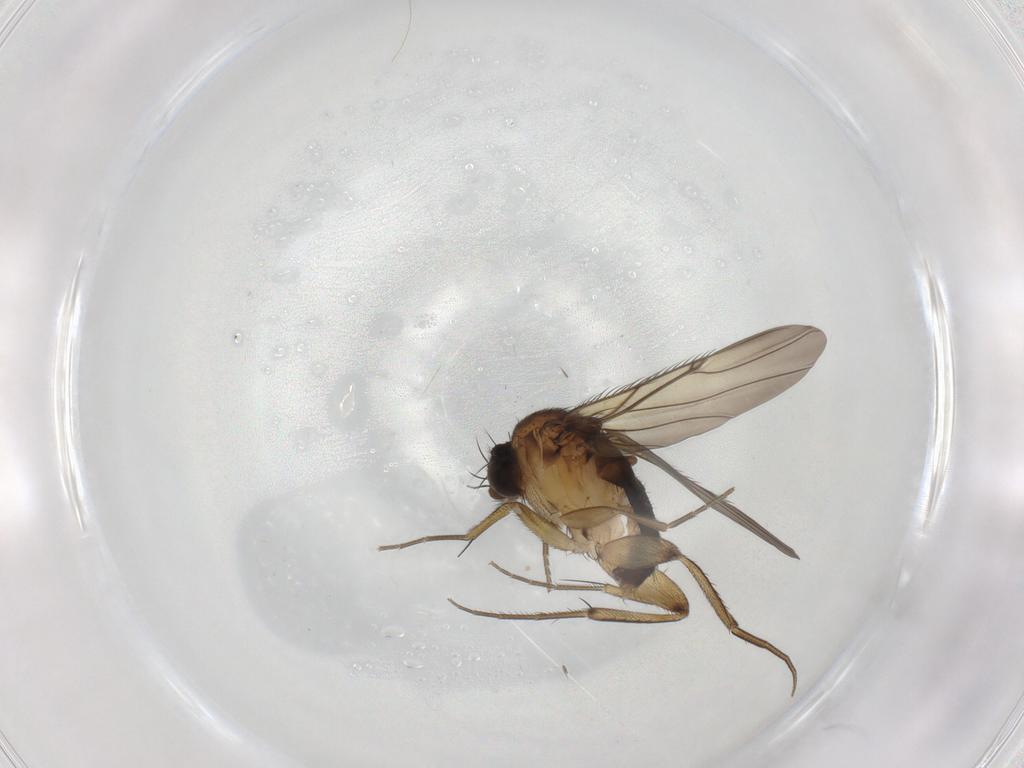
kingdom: Animalia
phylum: Arthropoda
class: Insecta
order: Diptera
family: Phoridae
